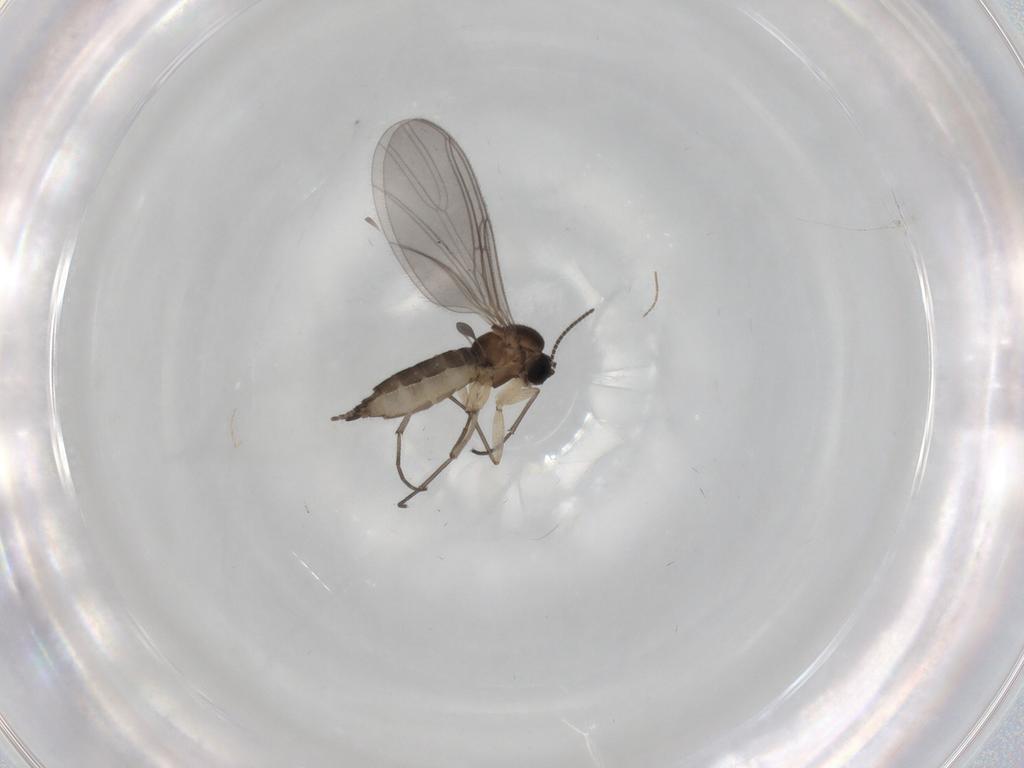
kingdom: Animalia
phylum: Arthropoda
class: Insecta
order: Diptera
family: Sciaridae
